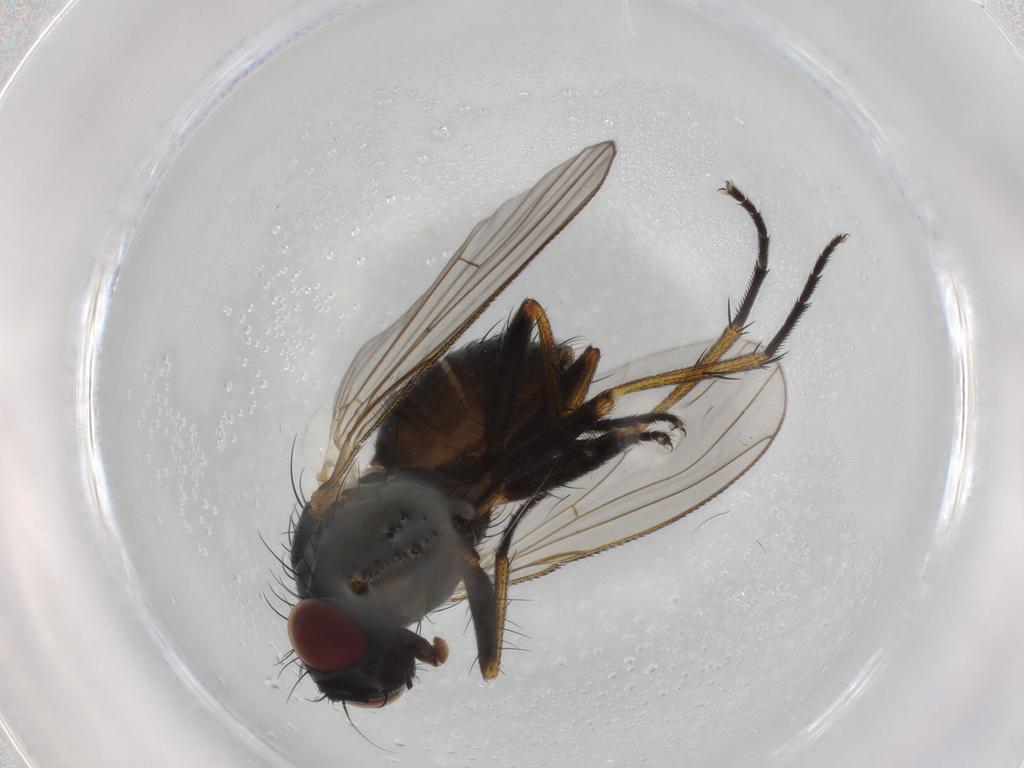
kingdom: Animalia
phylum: Arthropoda
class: Insecta
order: Diptera
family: Muscidae
